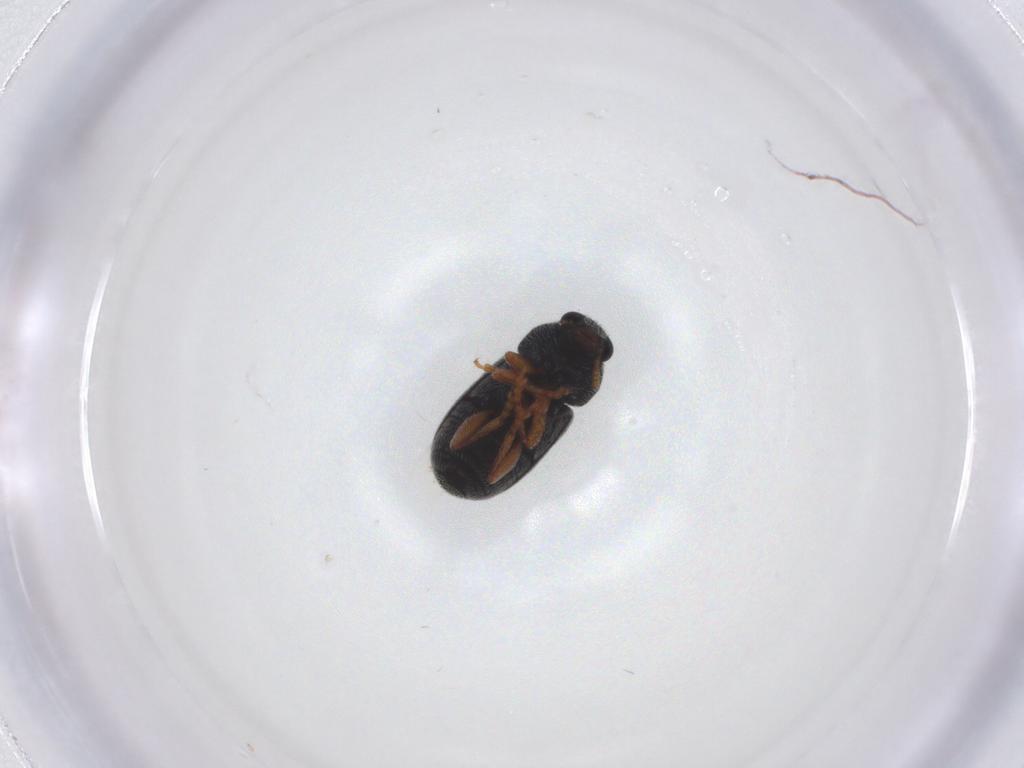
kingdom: Animalia
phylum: Arthropoda
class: Insecta
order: Coleoptera
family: Anthribidae
